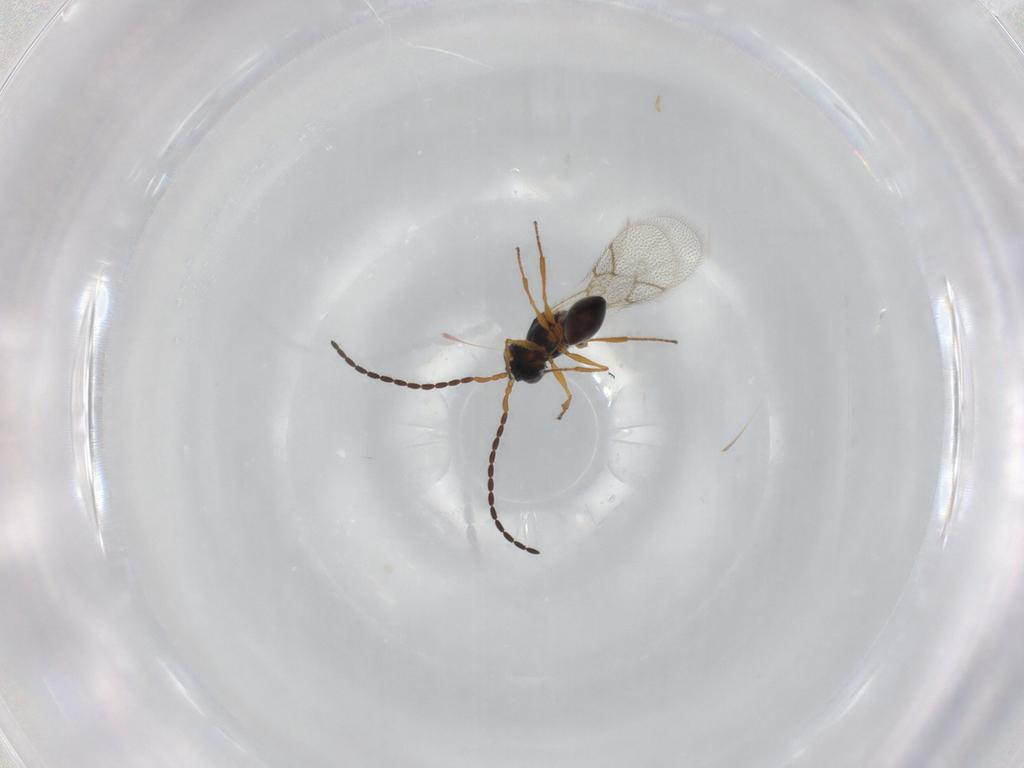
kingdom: Animalia
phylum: Arthropoda
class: Insecta
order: Hymenoptera
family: Figitidae
